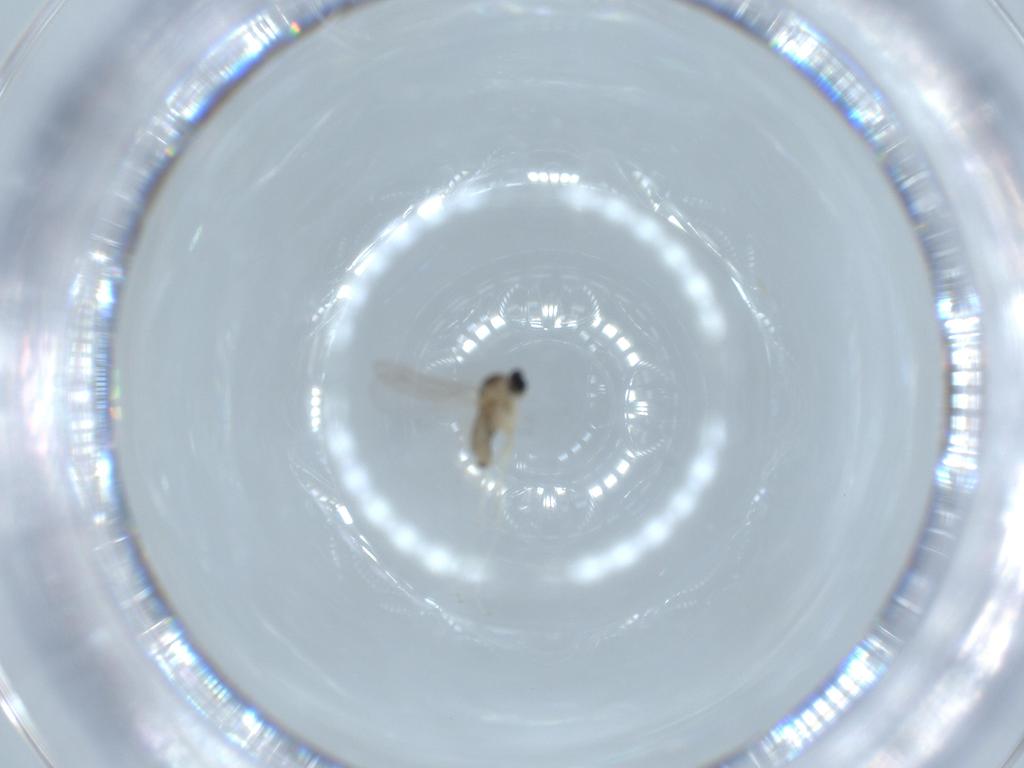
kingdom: Animalia
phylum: Arthropoda
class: Insecta
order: Diptera
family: Cecidomyiidae
